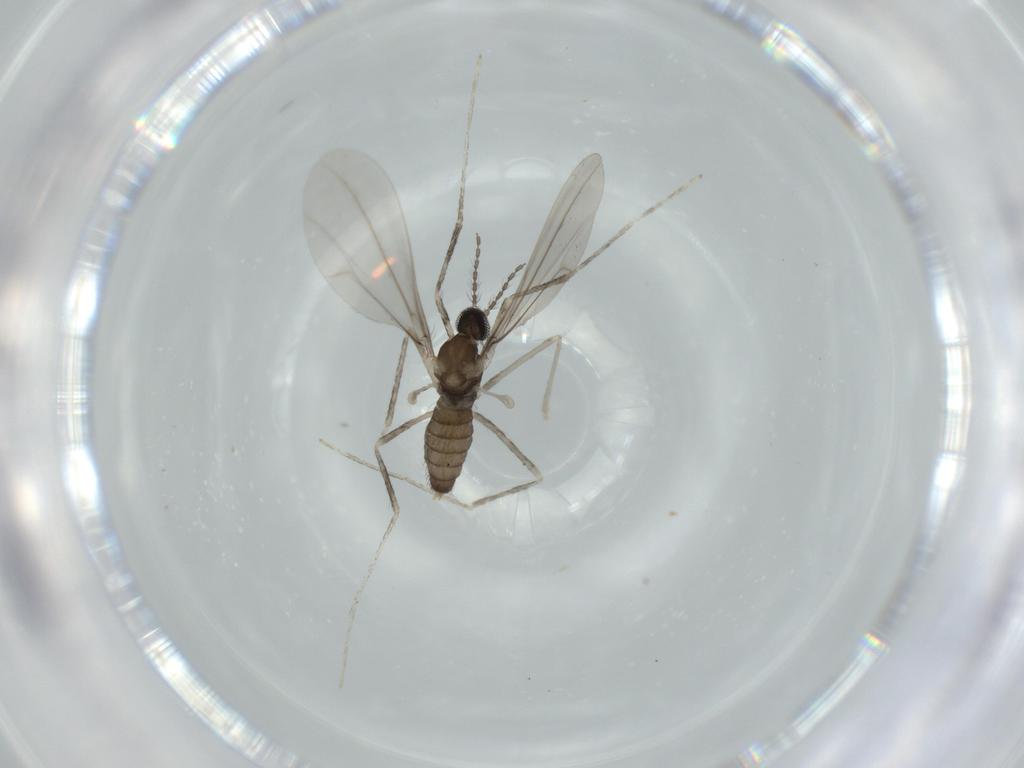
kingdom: Animalia
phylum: Arthropoda
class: Insecta
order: Diptera
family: Cecidomyiidae
